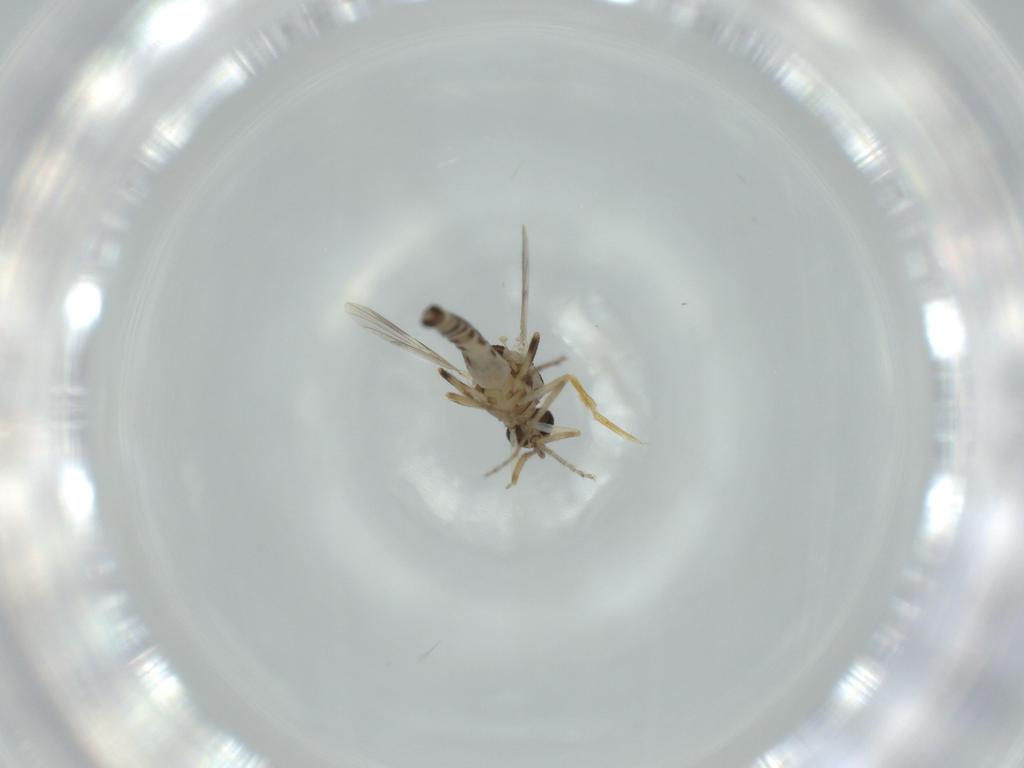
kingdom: Animalia
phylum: Arthropoda
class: Insecta
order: Diptera
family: Ceratopogonidae
